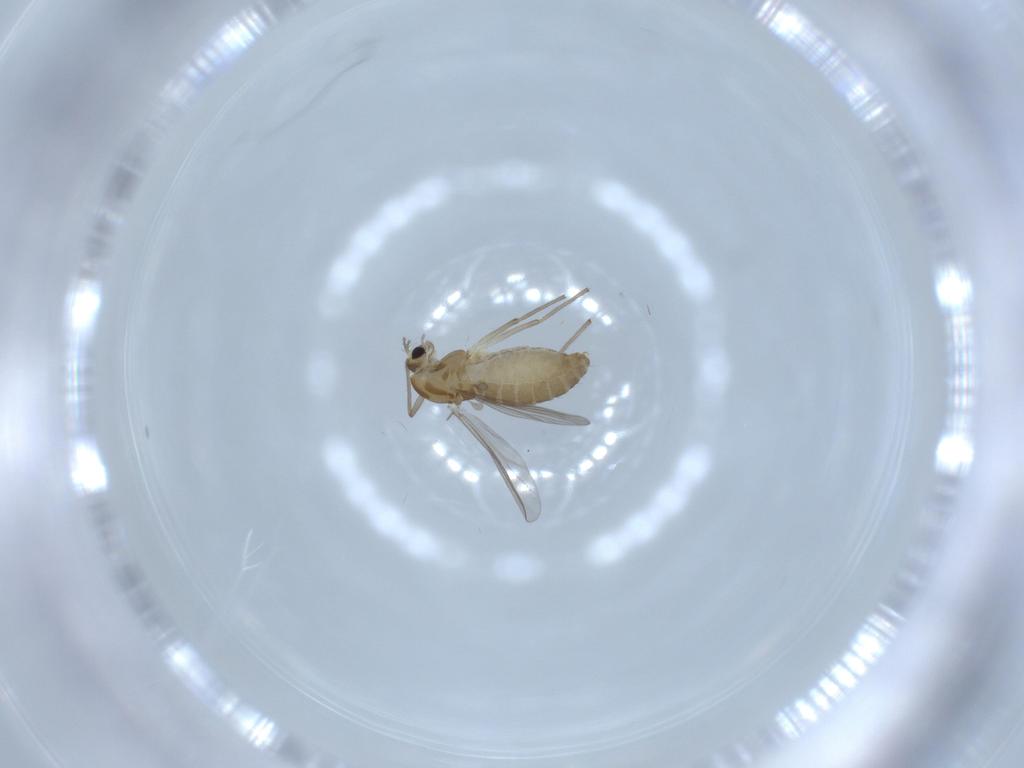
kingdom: Animalia
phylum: Arthropoda
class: Insecta
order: Diptera
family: Chironomidae
